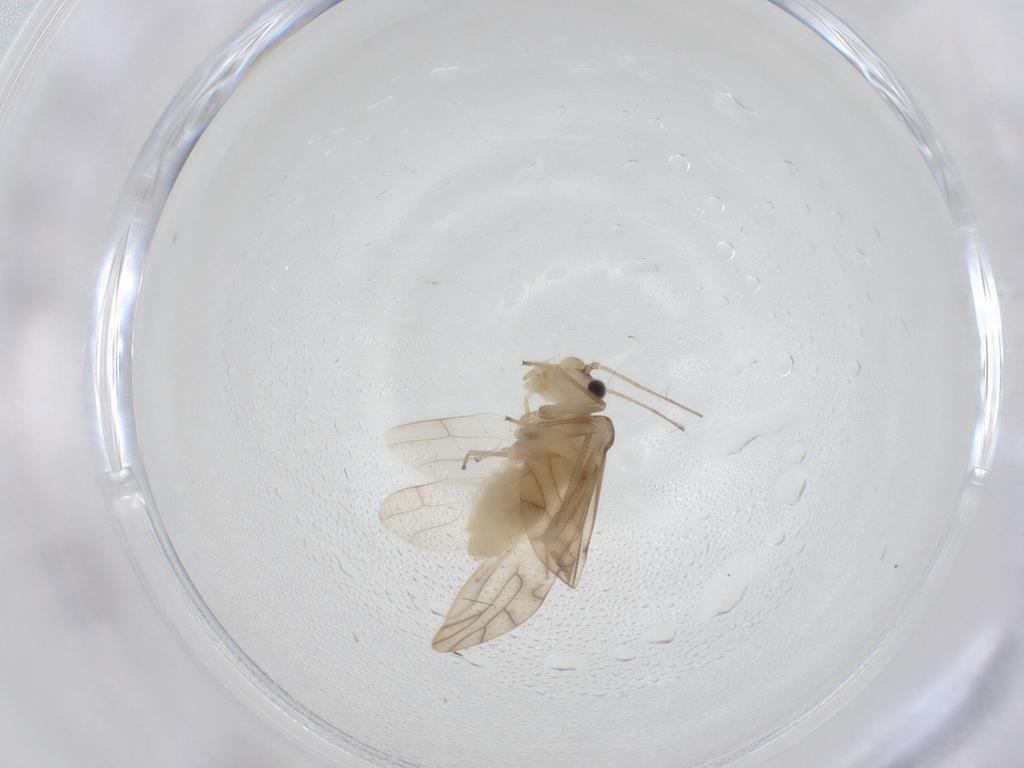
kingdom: Animalia
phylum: Arthropoda
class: Insecta
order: Psocodea
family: Caeciliusidae
